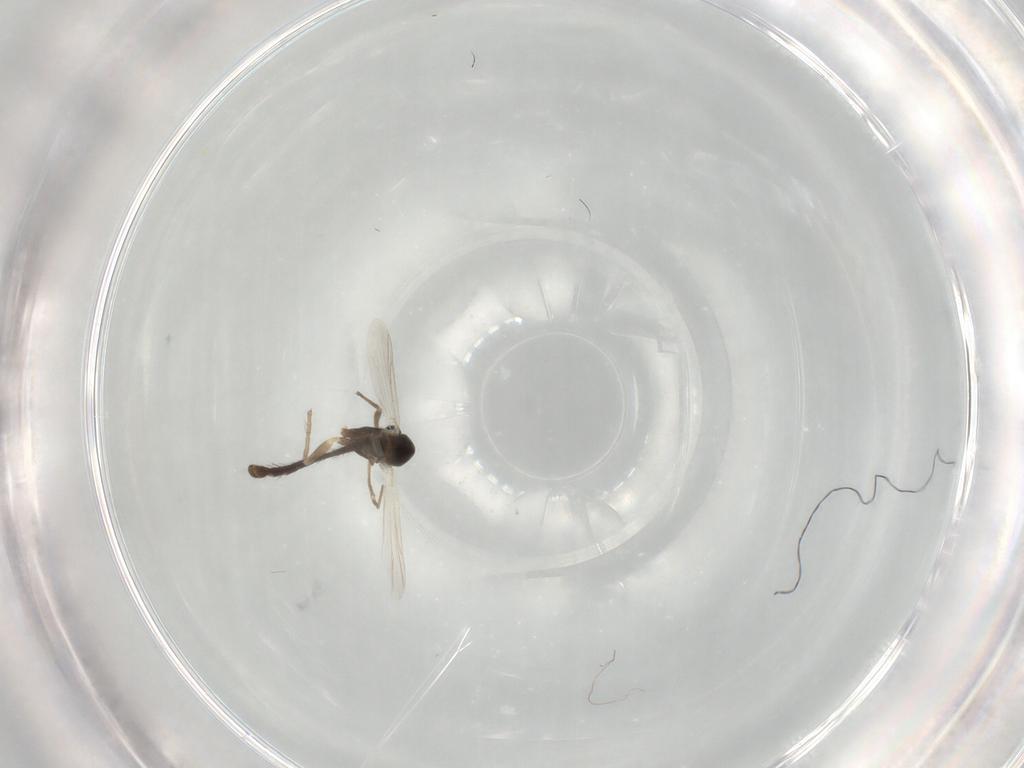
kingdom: Animalia
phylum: Arthropoda
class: Insecta
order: Diptera
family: Chironomidae
